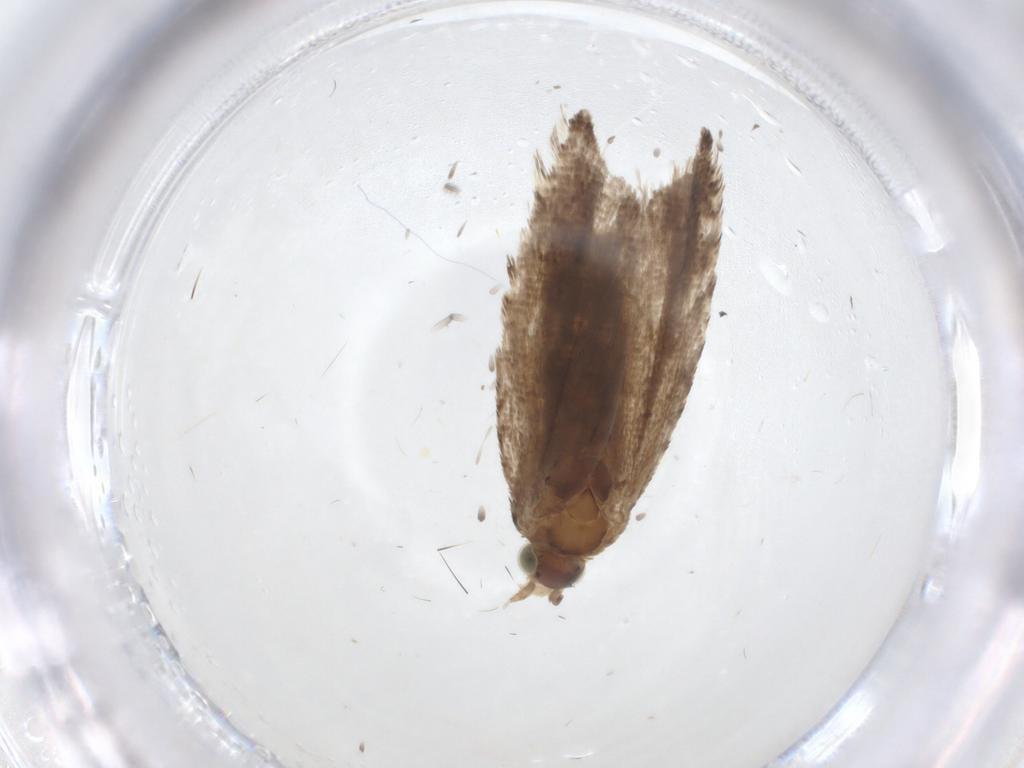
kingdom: Animalia
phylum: Arthropoda
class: Insecta
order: Lepidoptera
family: Tortricidae
